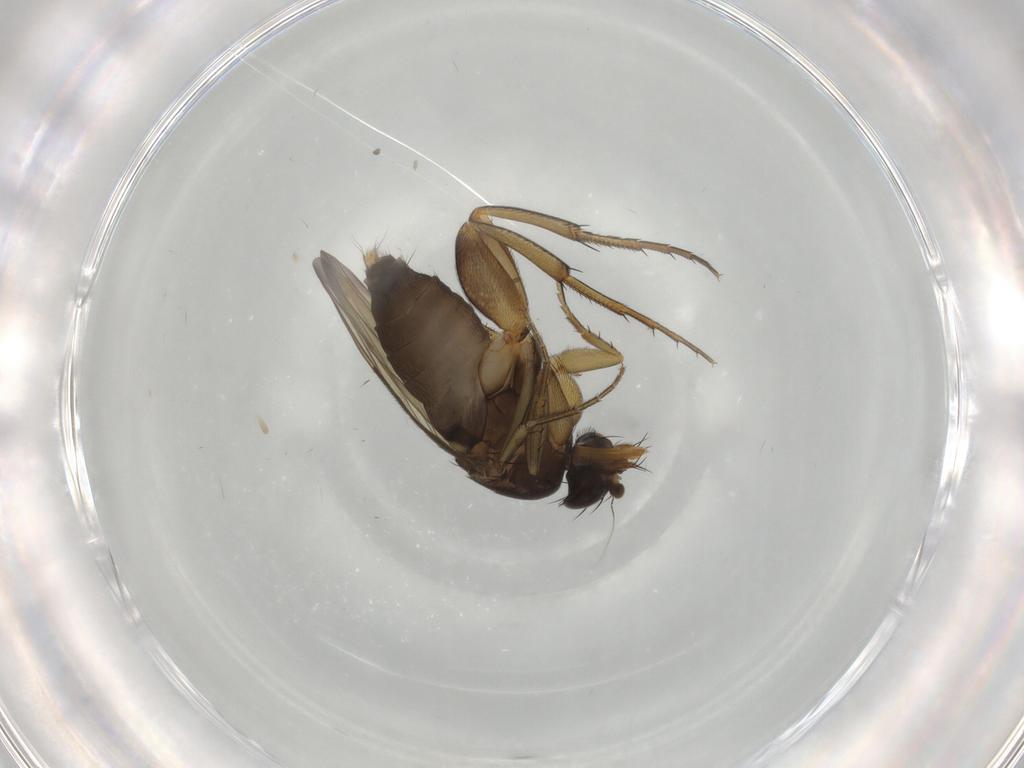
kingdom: Animalia
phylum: Arthropoda
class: Insecta
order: Diptera
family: Phoridae
